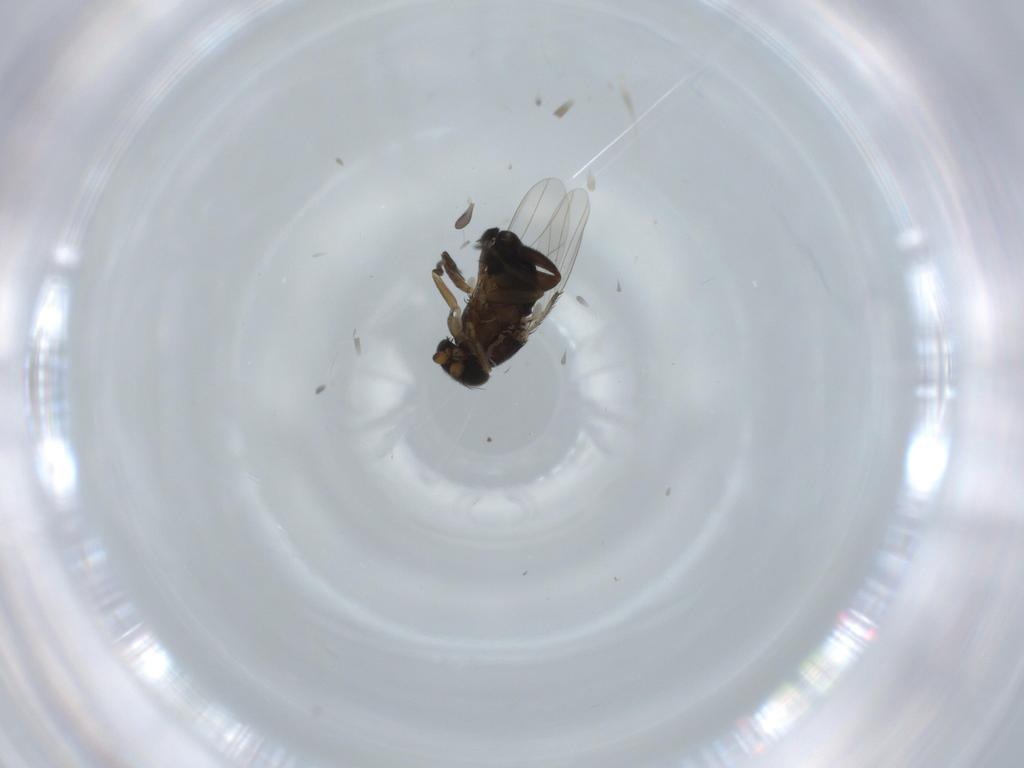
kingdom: Animalia
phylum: Arthropoda
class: Insecta
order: Diptera
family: Phoridae
